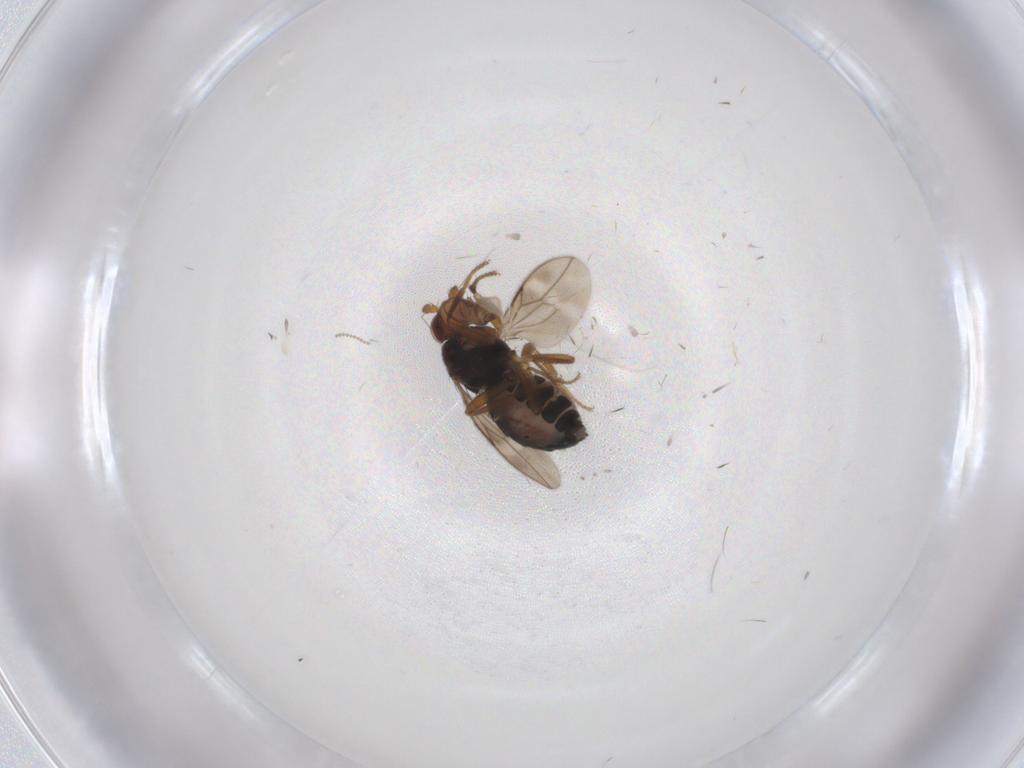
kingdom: Animalia
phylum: Arthropoda
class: Insecta
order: Diptera
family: Sphaeroceridae
